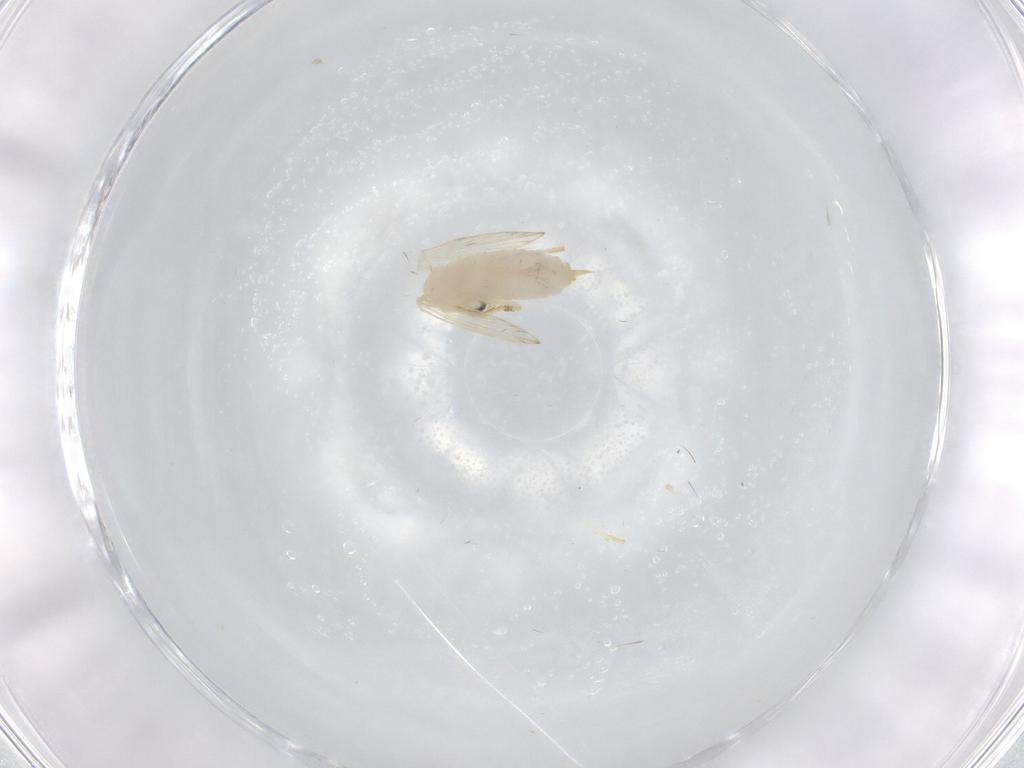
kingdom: Animalia
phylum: Arthropoda
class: Insecta
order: Diptera
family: Psychodidae
